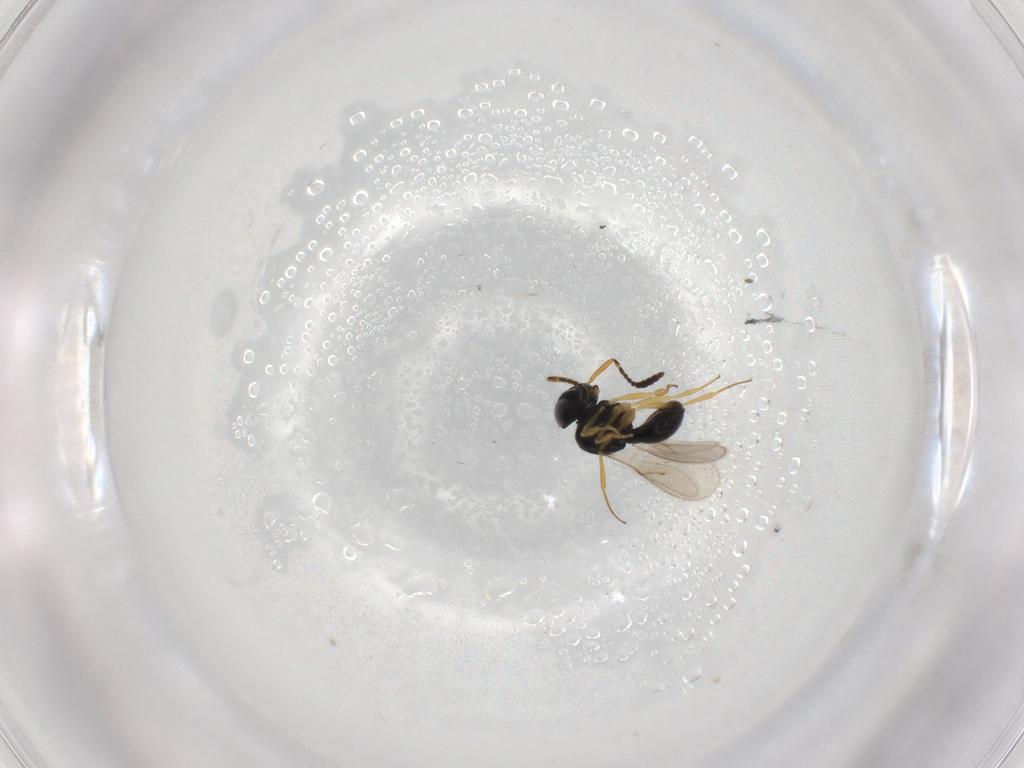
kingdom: Animalia
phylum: Arthropoda
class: Insecta
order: Hymenoptera
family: Scelionidae
